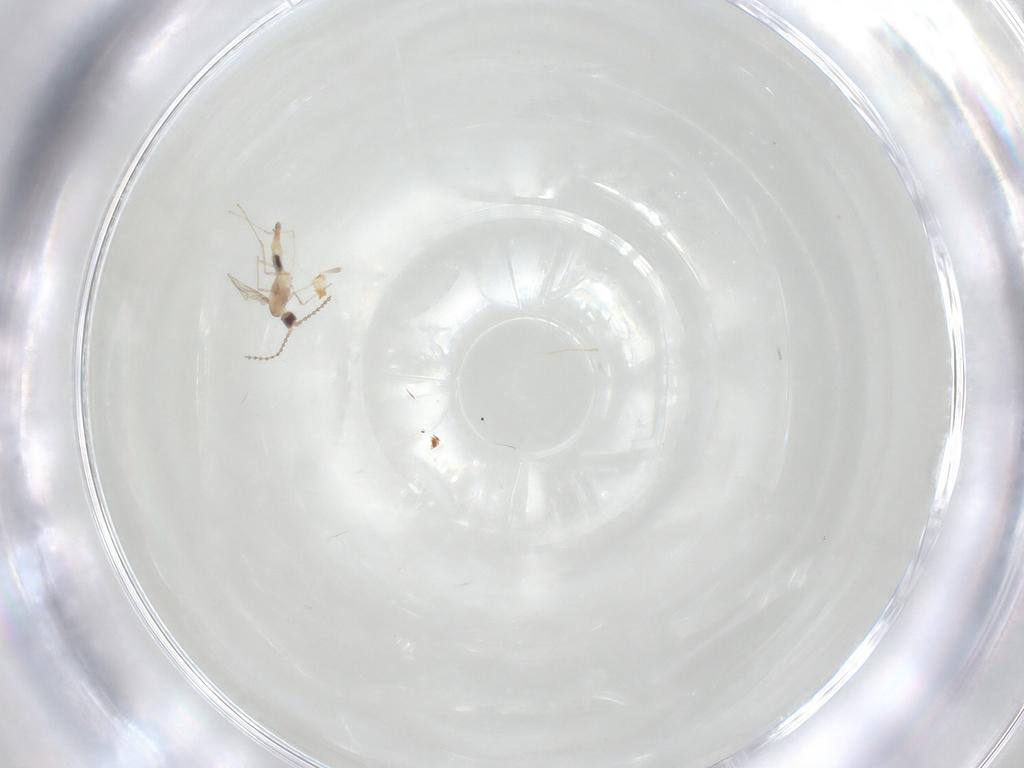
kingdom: Animalia
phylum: Arthropoda
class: Insecta
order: Diptera
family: Cecidomyiidae
